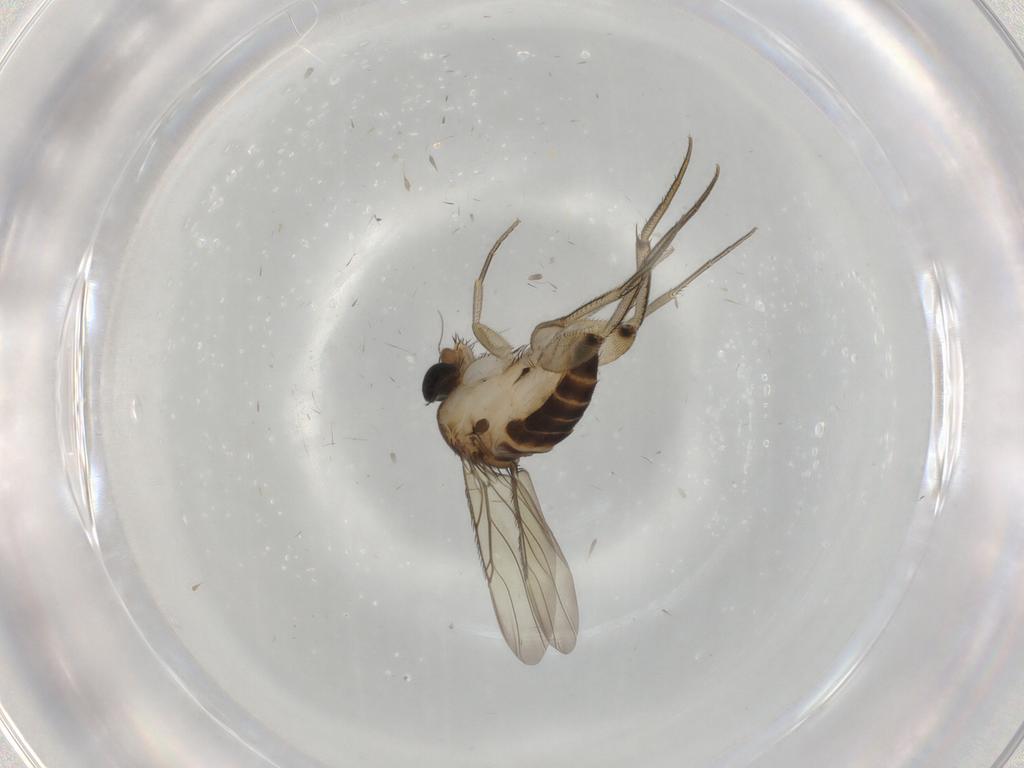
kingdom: Animalia
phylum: Arthropoda
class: Insecta
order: Diptera
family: Phoridae
